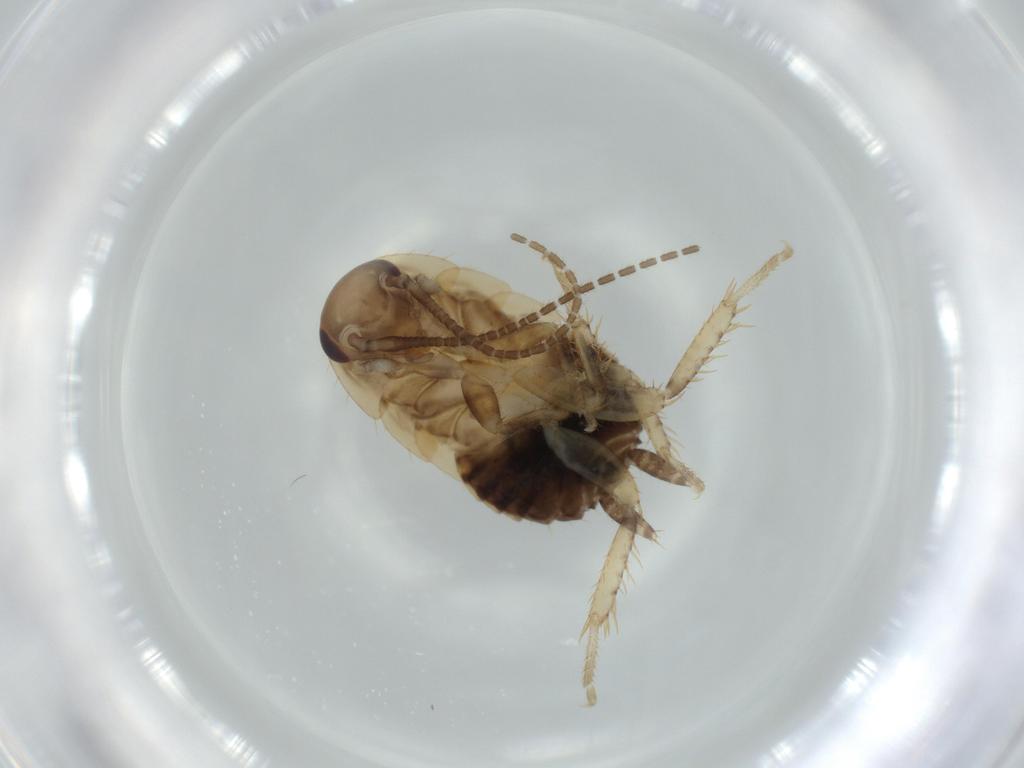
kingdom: Animalia
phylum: Arthropoda
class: Insecta
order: Blattodea
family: Ectobiidae
